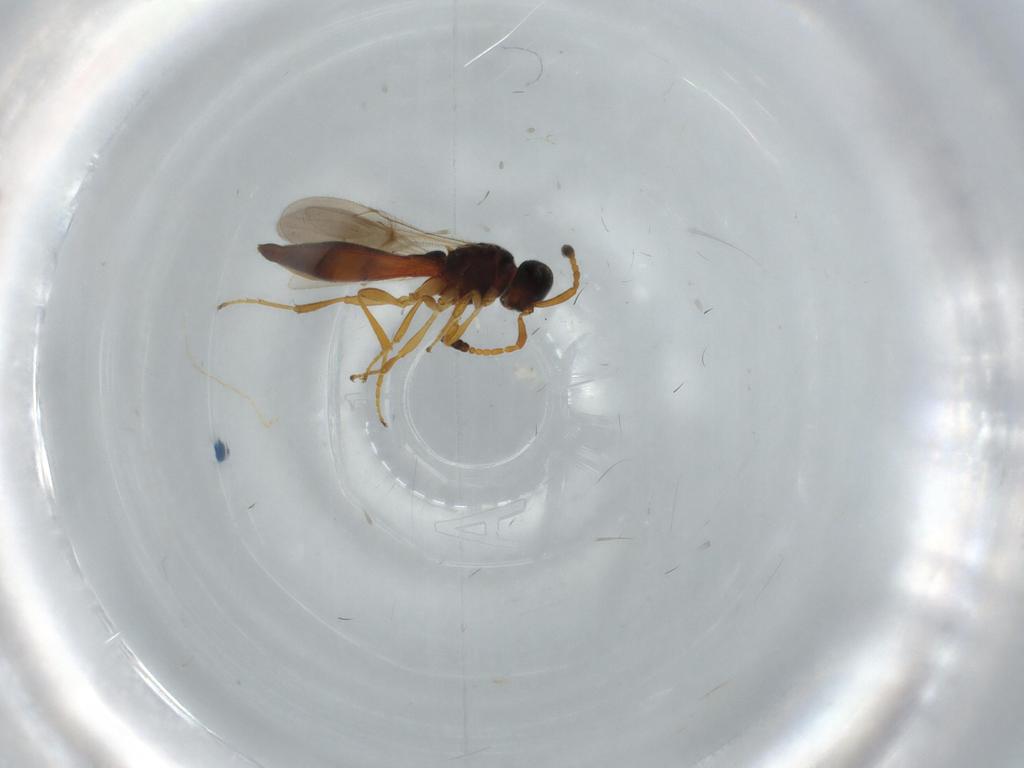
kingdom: Animalia
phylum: Arthropoda
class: Insecta
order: Hymenoptera
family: Scelionidae
